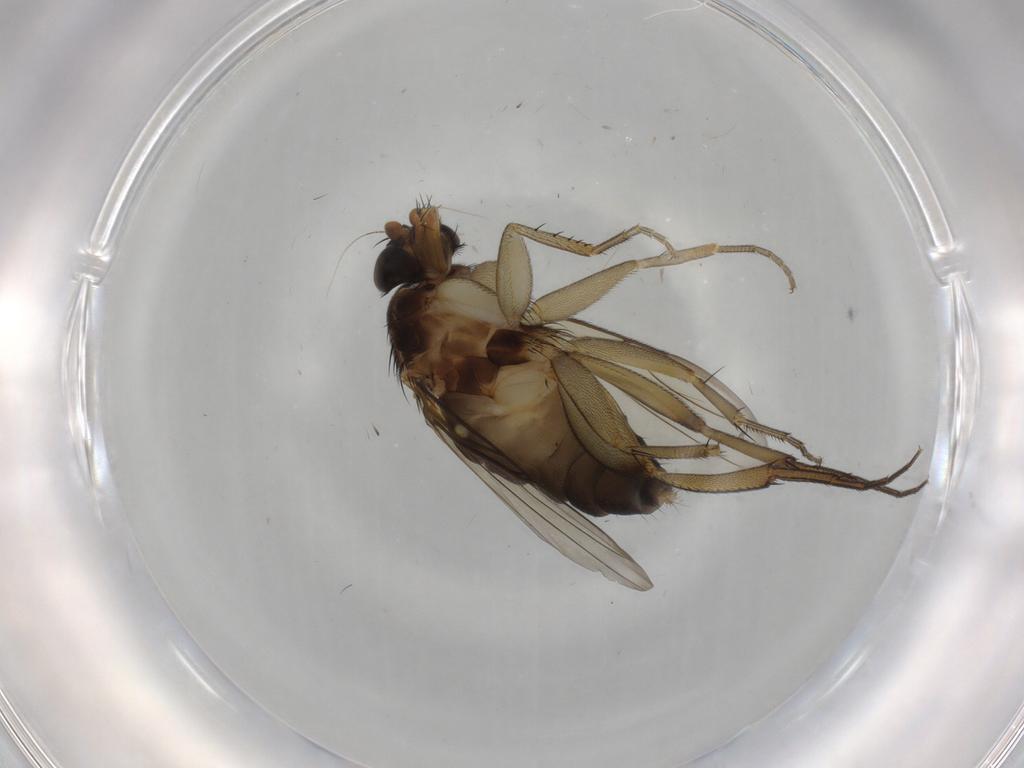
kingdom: Animalia
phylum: Arthropoda
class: Insecta
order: Diptera
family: Phoridae
